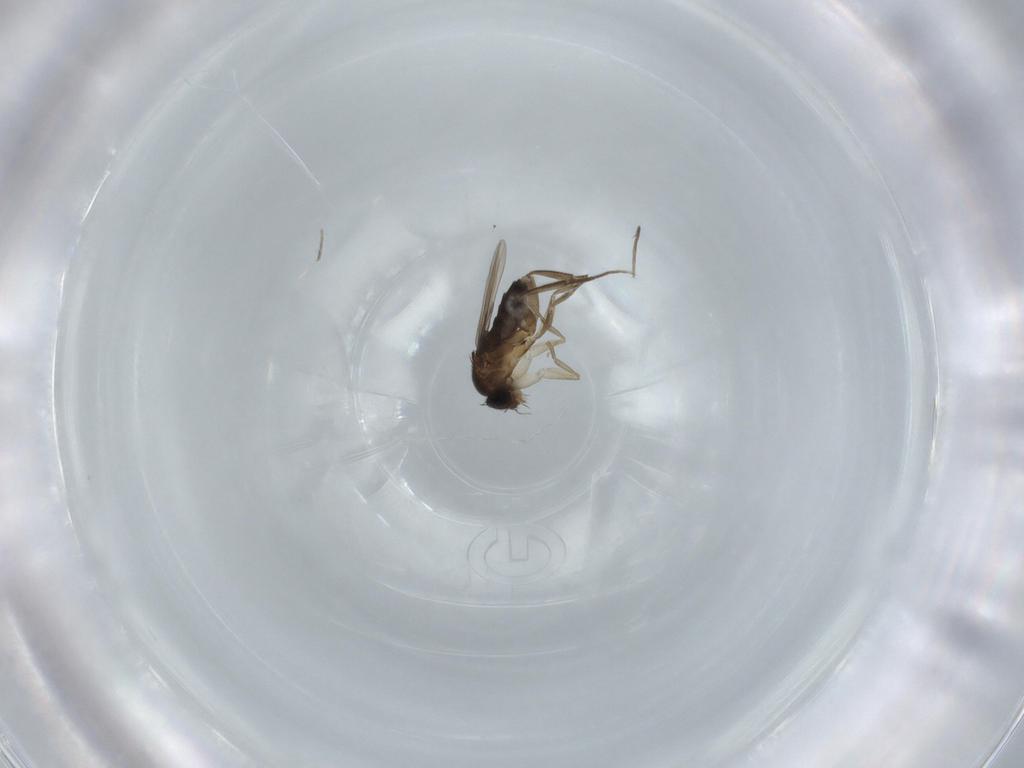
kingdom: Animalia
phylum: Arthropoda
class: Insecta
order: Diptera
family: Phoridae
